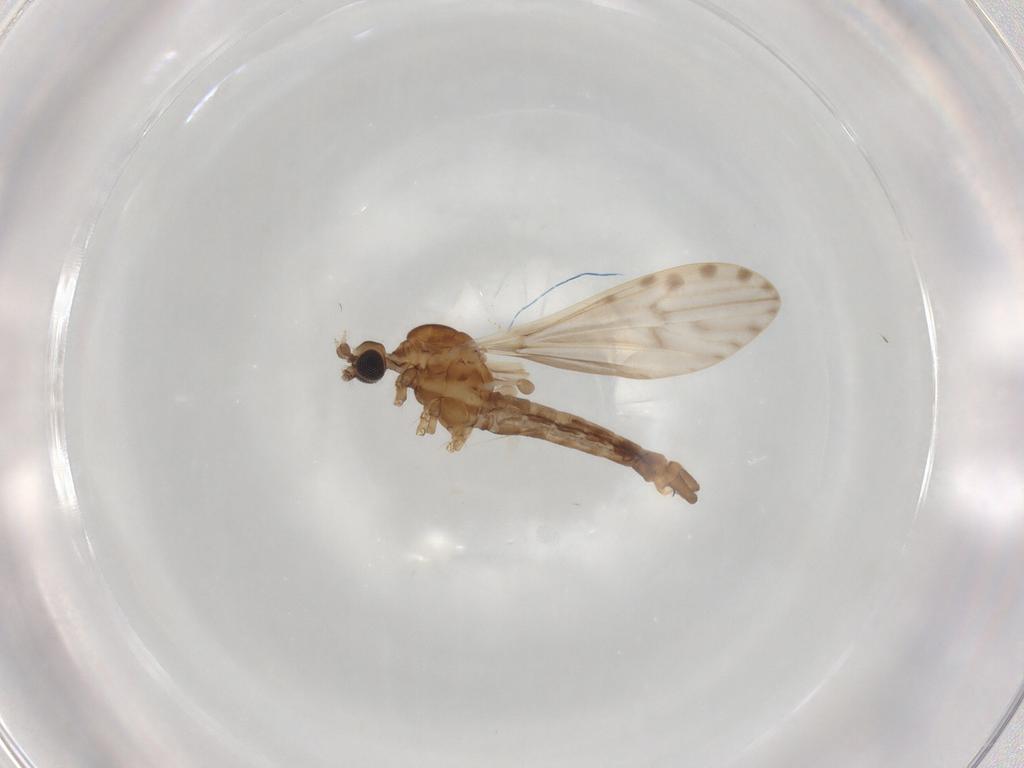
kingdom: Animalia
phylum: Arthropoda
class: Insecta
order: Diptera
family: Limoniidae
